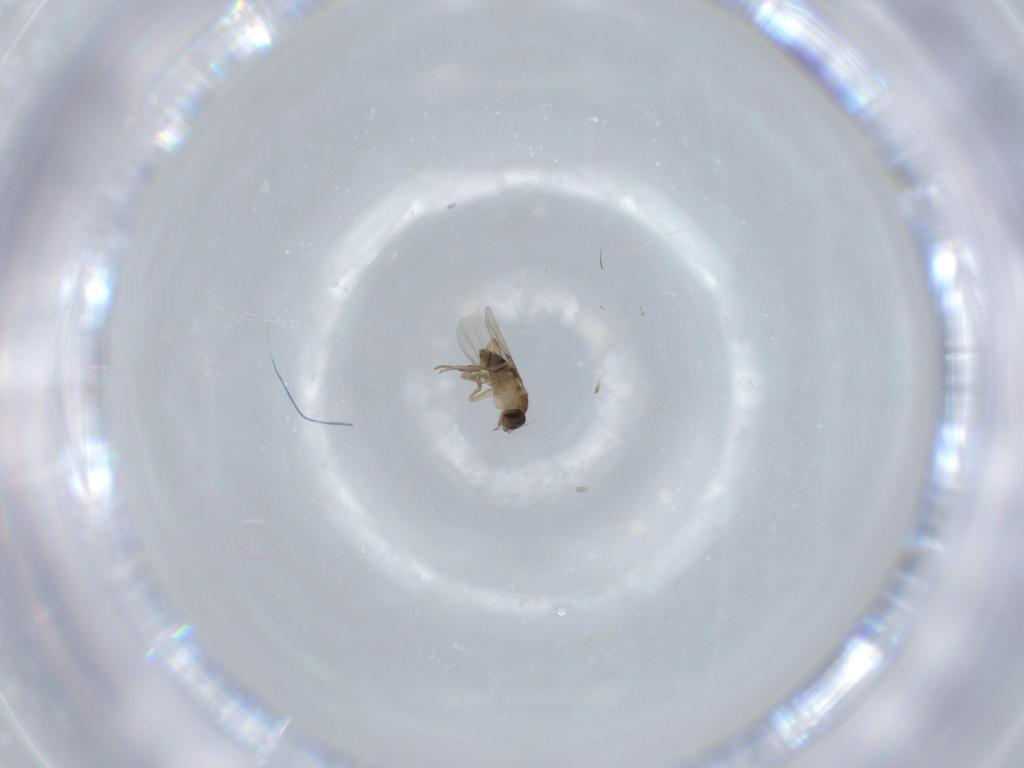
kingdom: Animalia
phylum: Arthropoda
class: Insecta
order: Diptera
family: Phoridae
